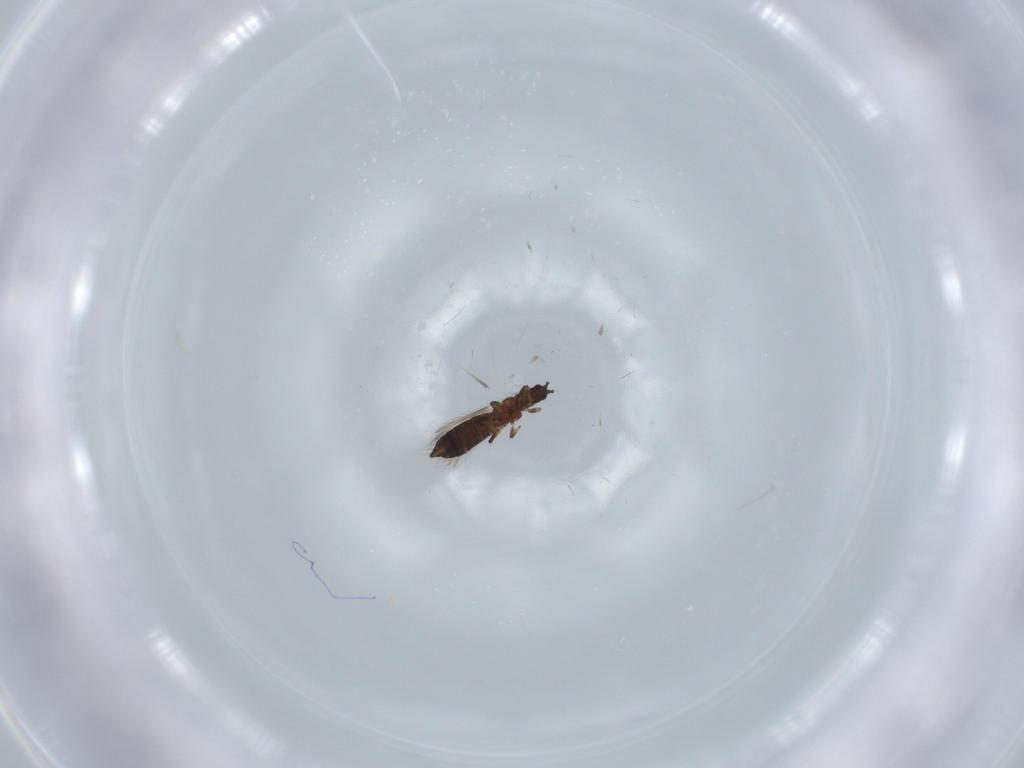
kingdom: Animalia
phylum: Arthropoda
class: Insecta
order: Thysanoptera
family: Thripidae
